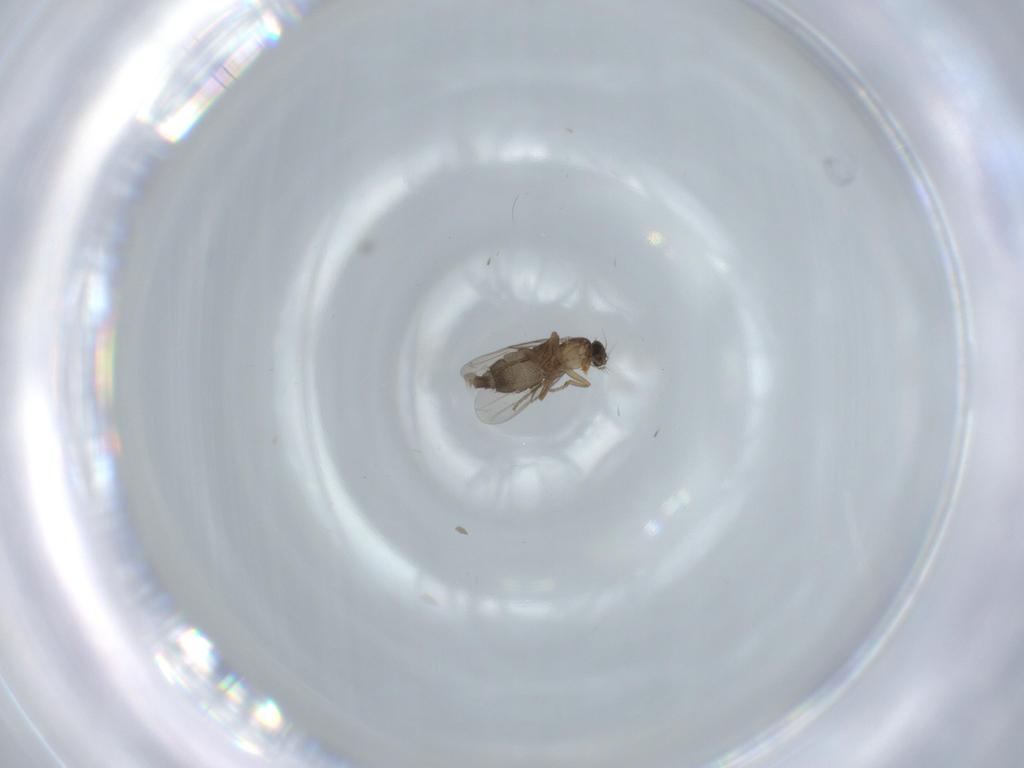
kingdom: Animalia
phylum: Arthropoda
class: Insecta
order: Diptera
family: Phoridae
